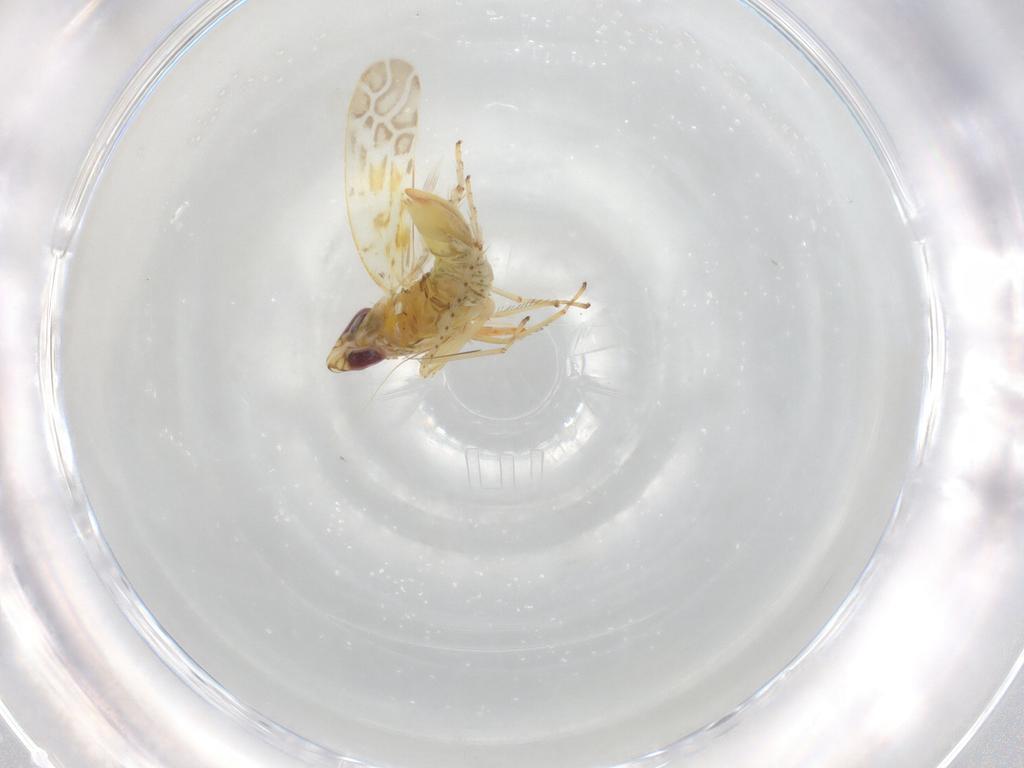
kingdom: Animalia
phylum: Arthropoda
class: Insecta
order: Hemiptera
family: Cicadellidae
